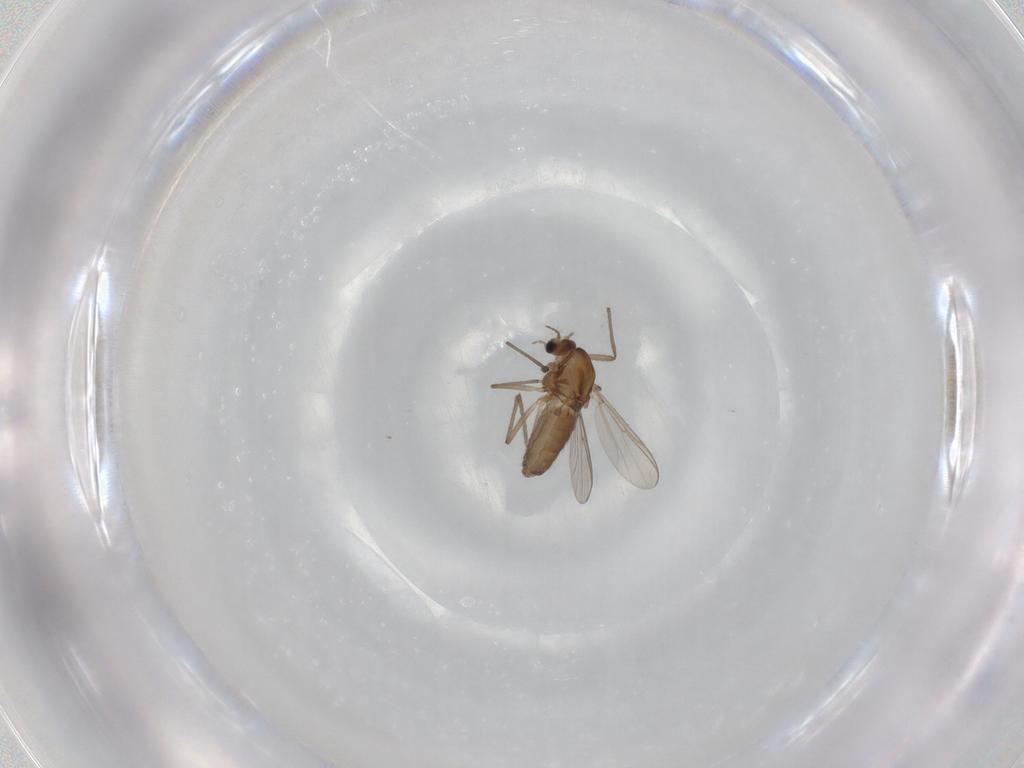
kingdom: Animalia
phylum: Arthropoda
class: Insecta
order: Diptera
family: Chironomidae
